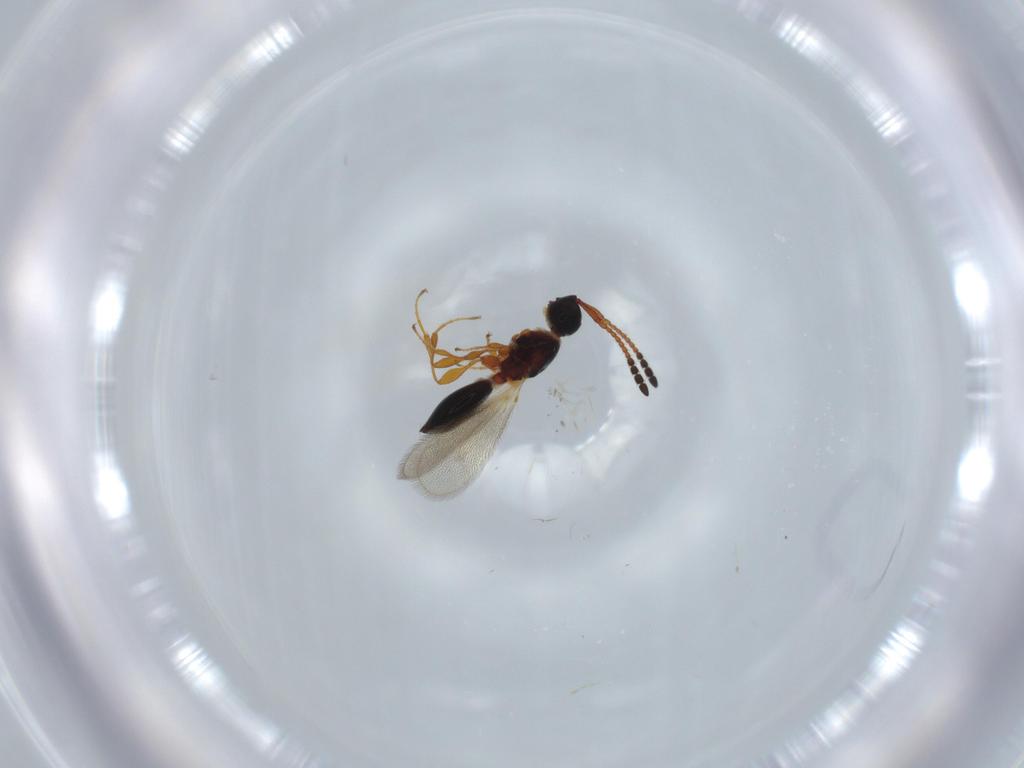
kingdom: Animalia
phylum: Arthropoda
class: Insecta
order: Hymenoptera
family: Diapriidae
